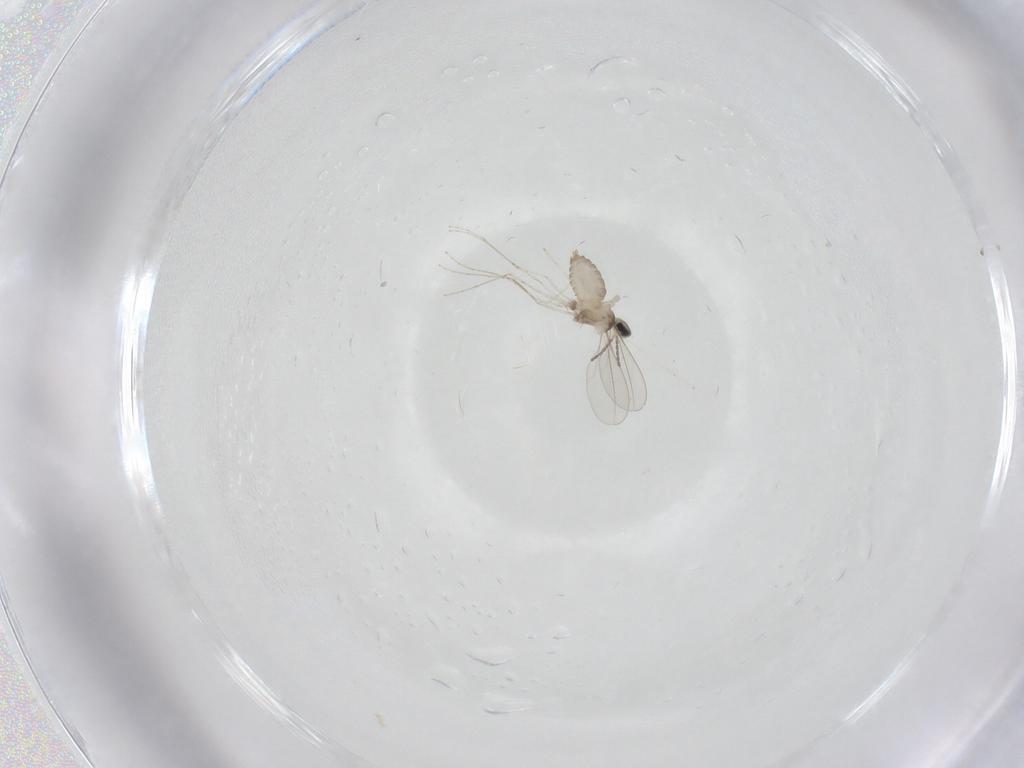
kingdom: Animalia
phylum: Arthropoda
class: Insecta
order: Diptera
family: Cecidomyiidae
